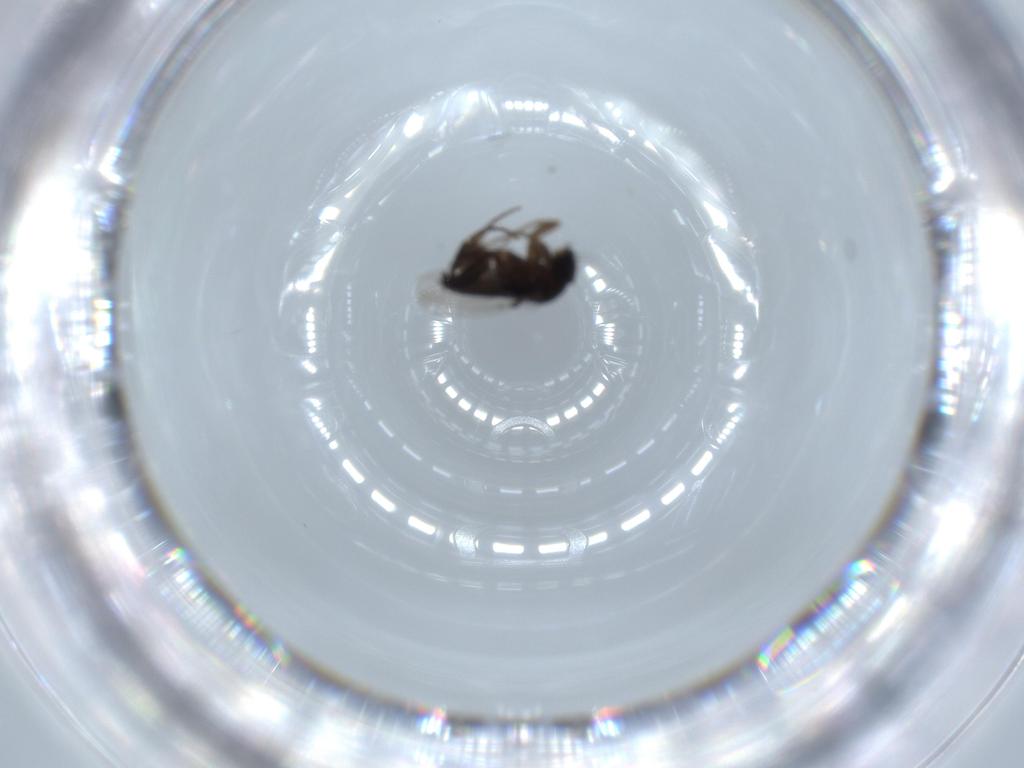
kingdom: Animalia
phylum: Arthropoda
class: Insecta
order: Diptera
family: Phoridae
